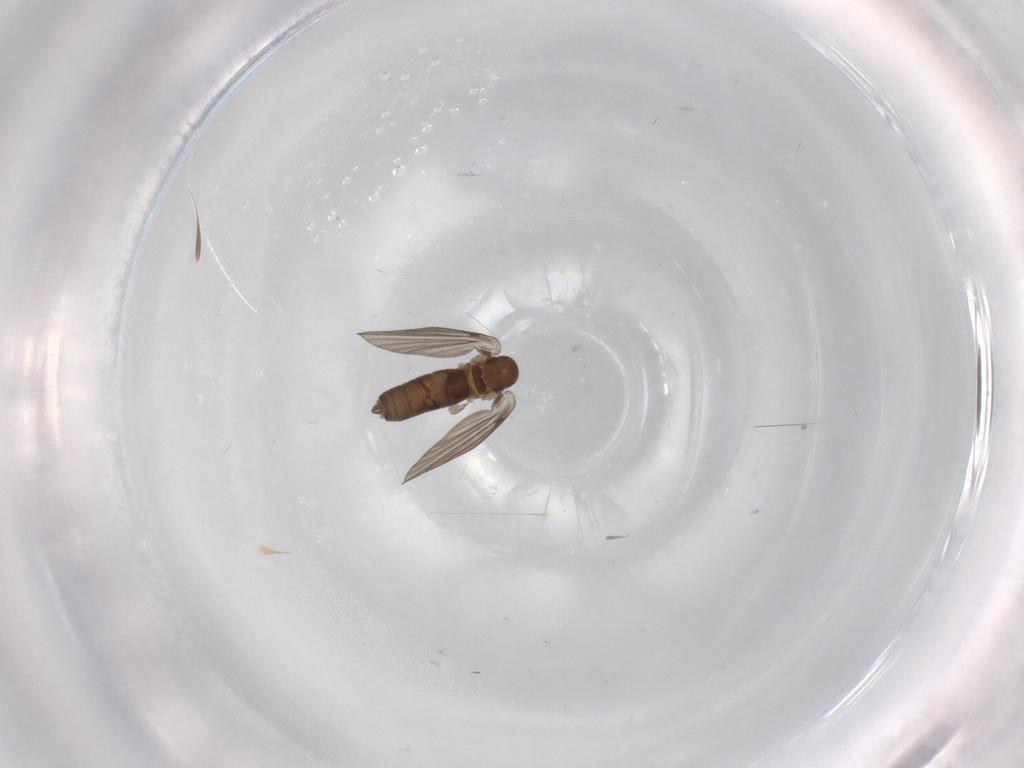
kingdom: Animalia
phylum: Arthropoda
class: Insecta
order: Diptera
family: Psychodidae
